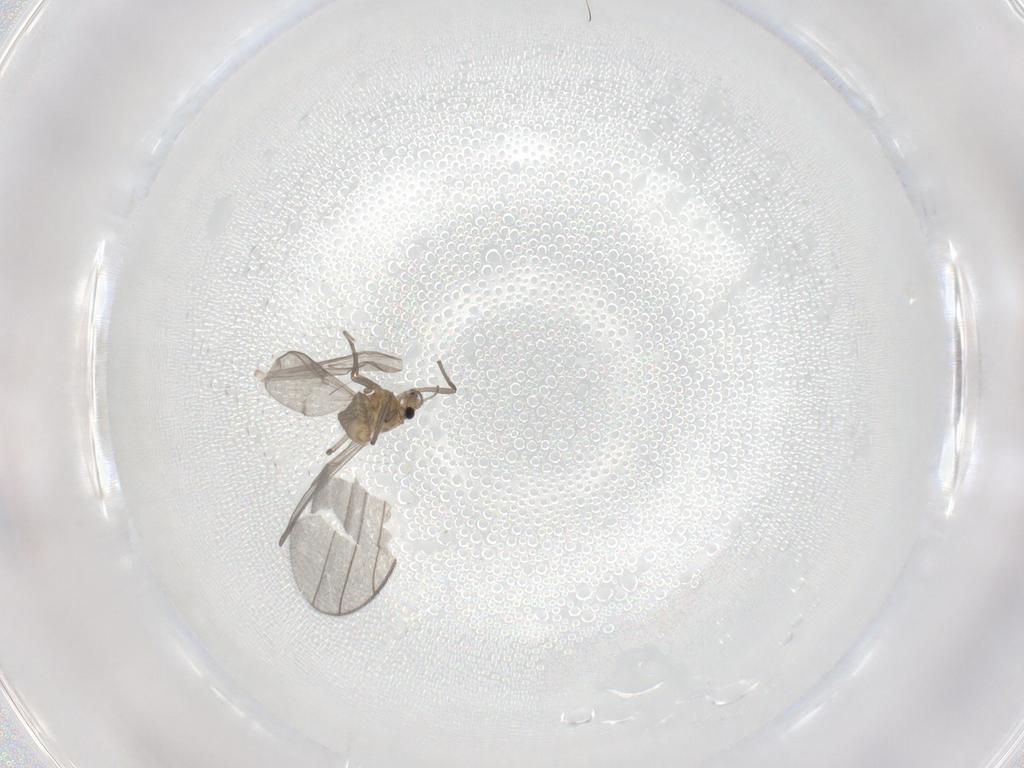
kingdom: Animalia
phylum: Arthropoda
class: Insecta
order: Diptera
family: Chironomidae
